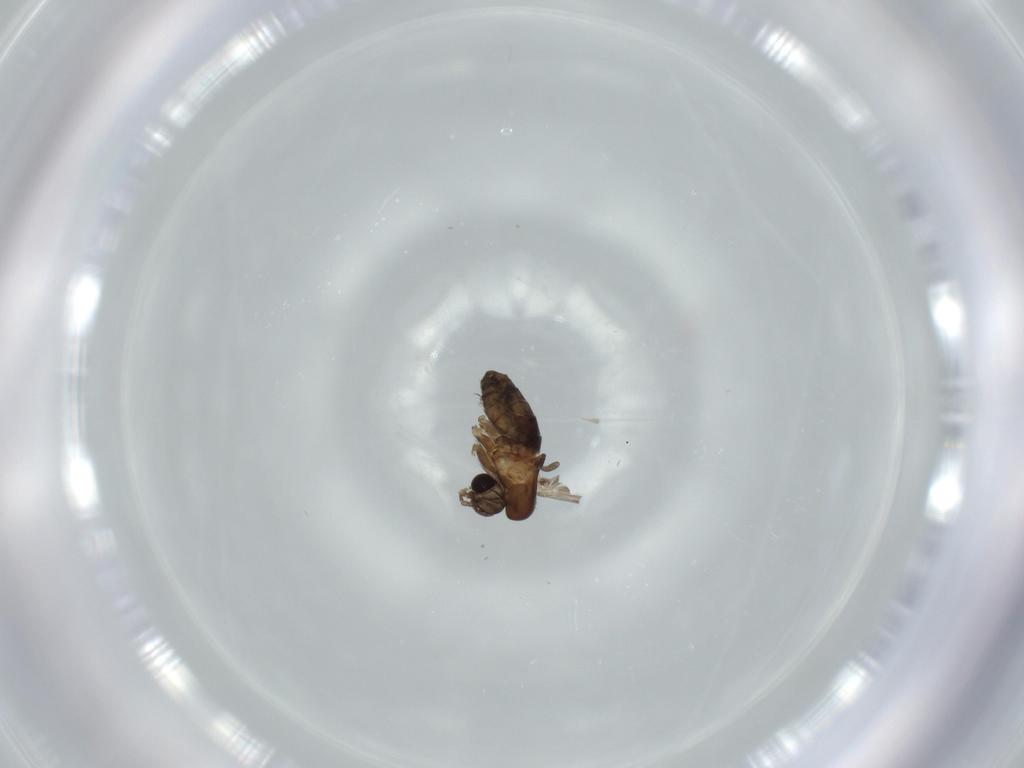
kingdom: Animalia
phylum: Arthropoda
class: Insecta
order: Diptera
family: Psychodidae
